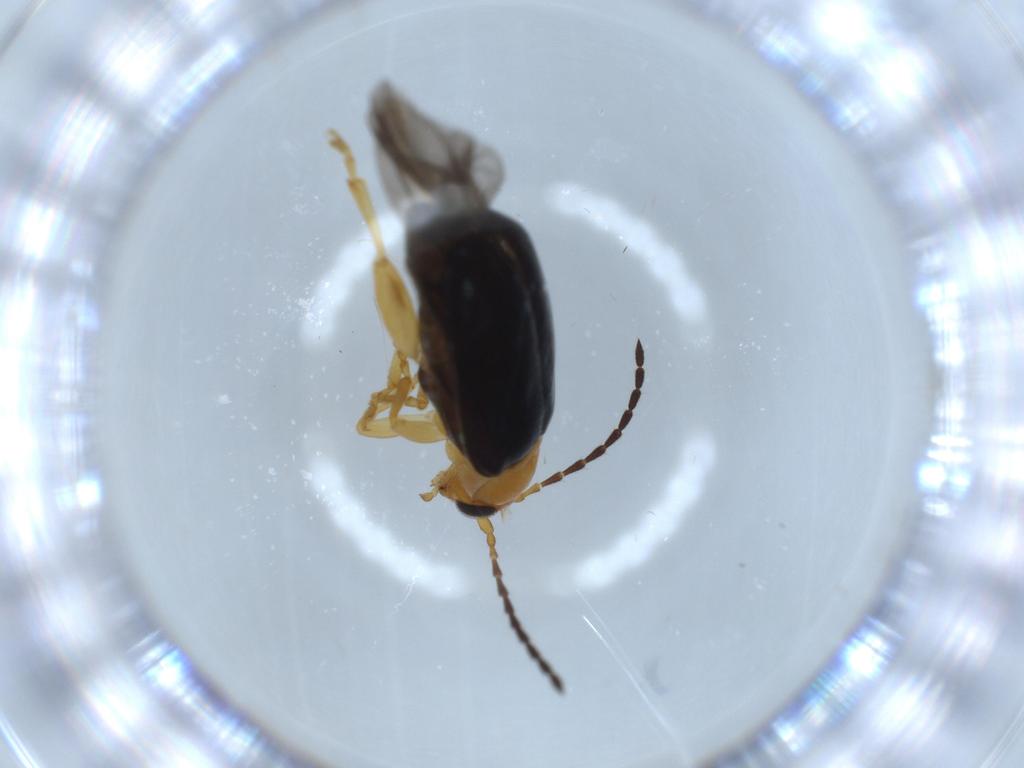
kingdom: Animalia
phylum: Arthropoda
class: Insecta
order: Coleoptera
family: Chrysomelidae
